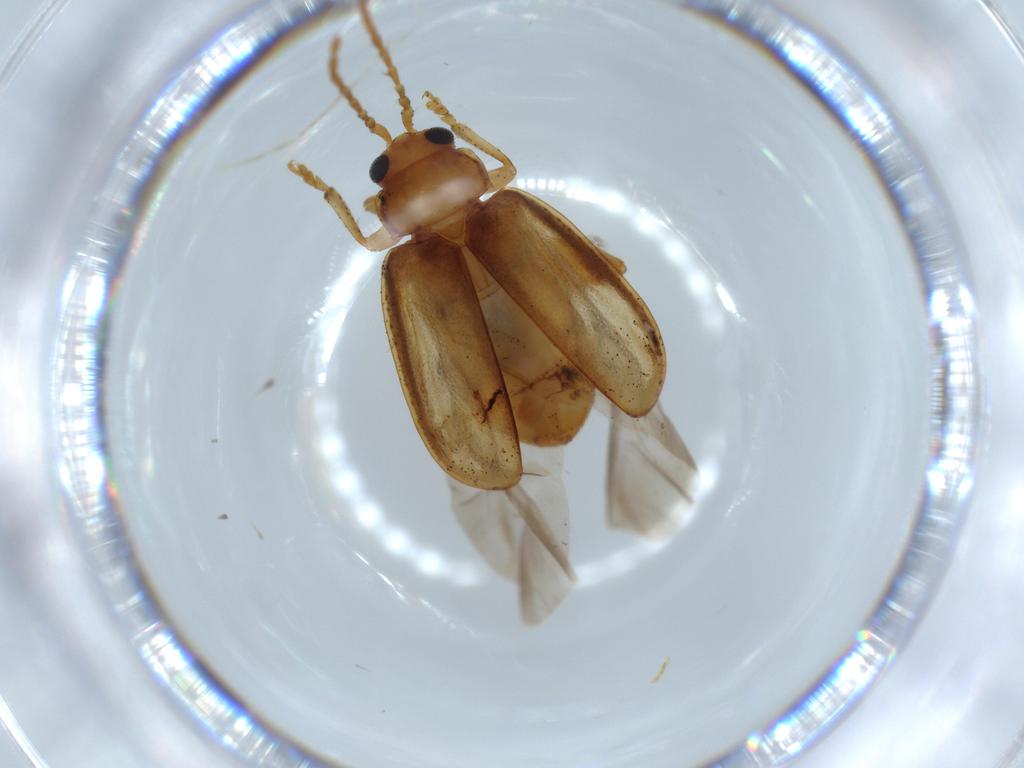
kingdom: Animalia
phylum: Arthropoda
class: Insecta
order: Coleoptera
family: Chrysomelidae
